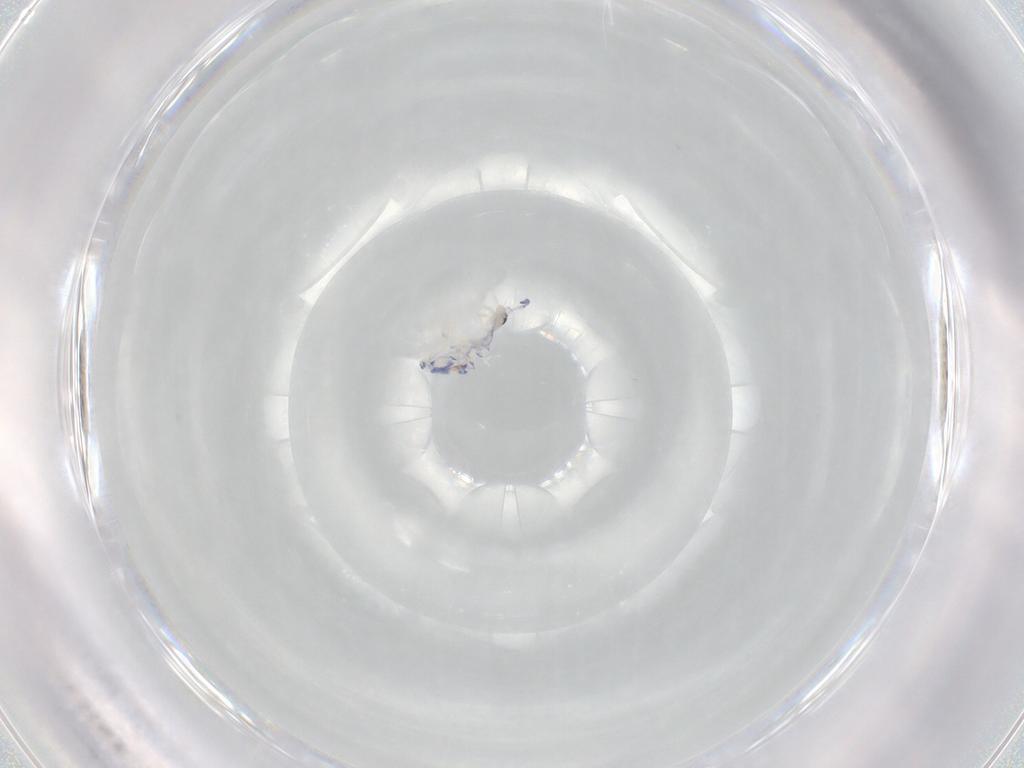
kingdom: Animalia
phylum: Arthropoda
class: Collembola
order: Entomobryomorpha
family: Entomobryidae
